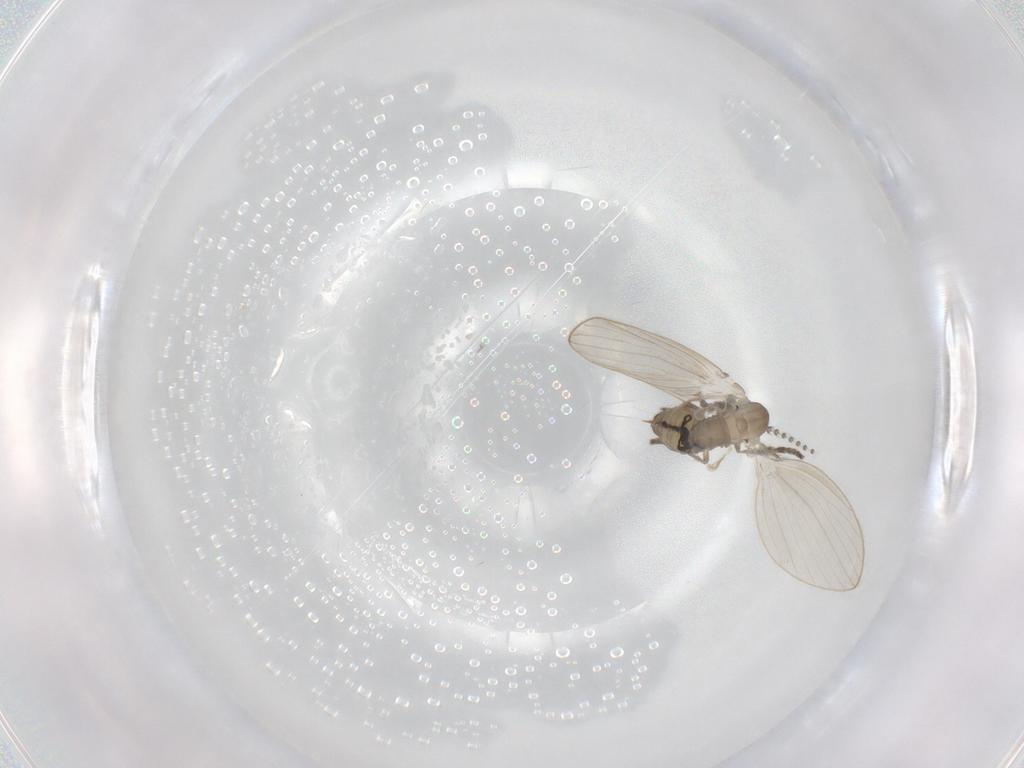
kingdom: Animalia
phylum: Arthropoda
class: Insecta
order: Diptera
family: Psychodidae
